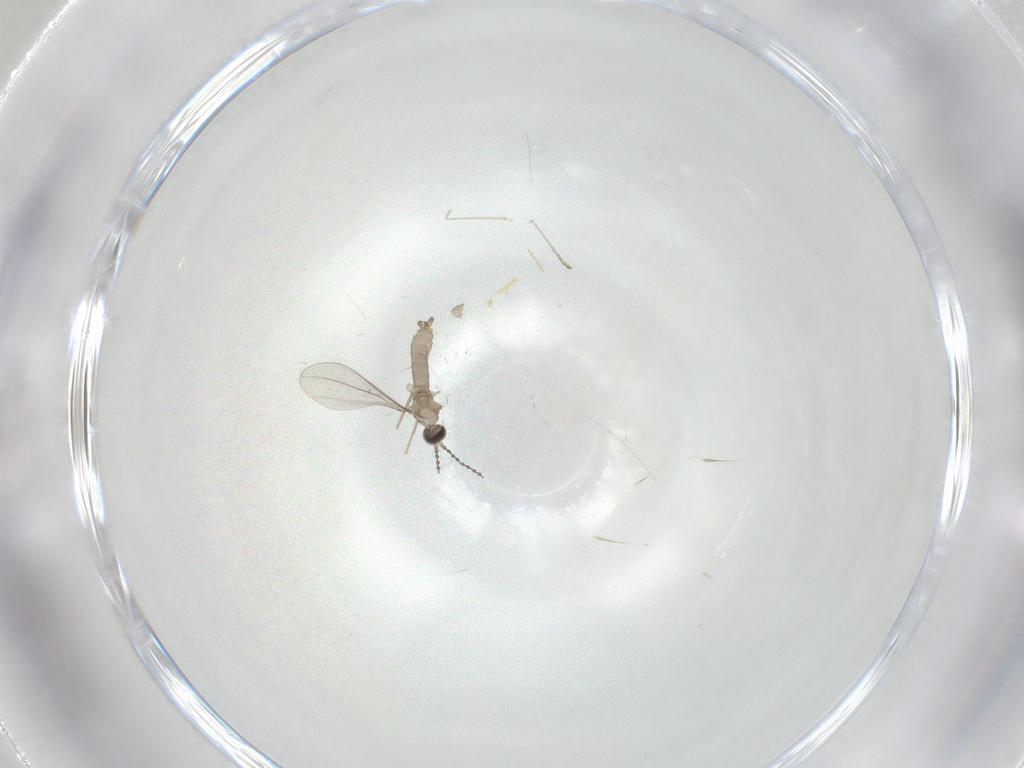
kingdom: Animalia
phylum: Arthropoda
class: Insecta
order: Diptera
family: Cecidomyiidae
